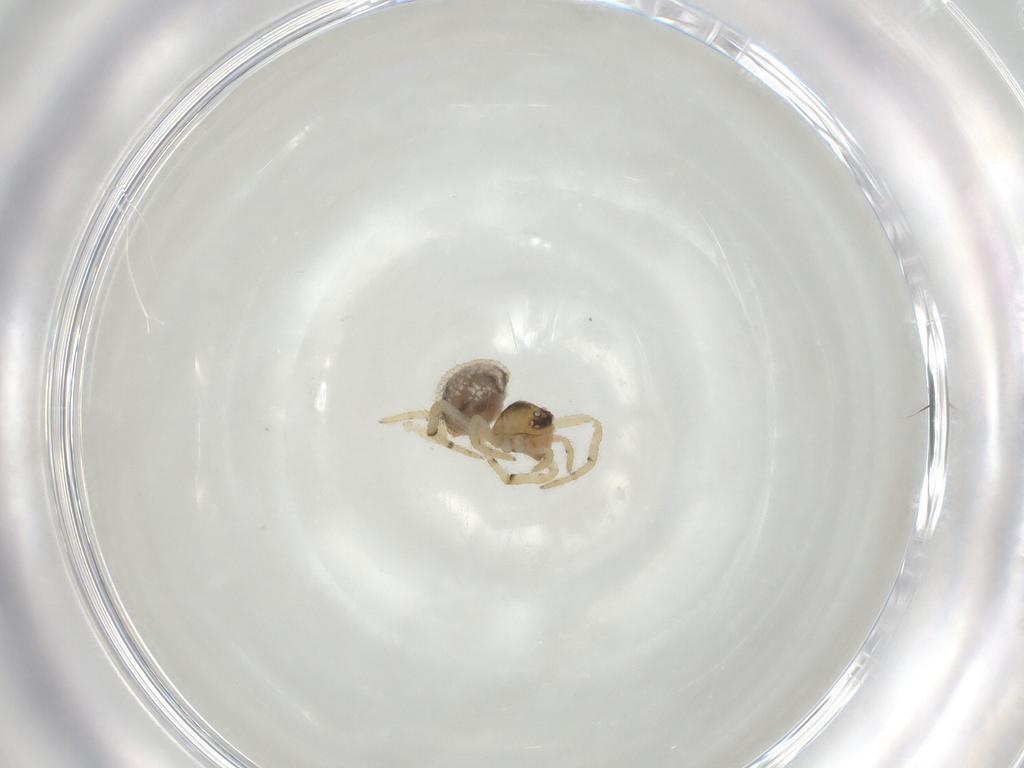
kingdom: Animalia
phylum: Arthropoda
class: Arachnida
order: Araneae
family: Theridiidae
